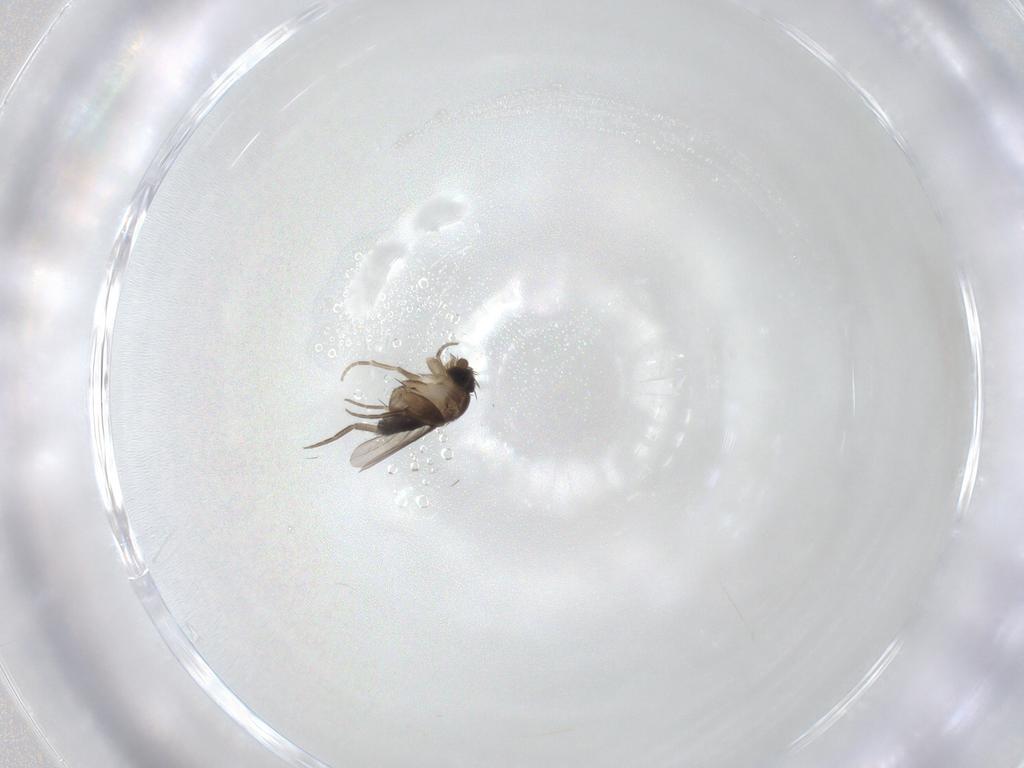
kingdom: Animalia
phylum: Arthropoda
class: Insecta
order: Diptera
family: Phoridae
